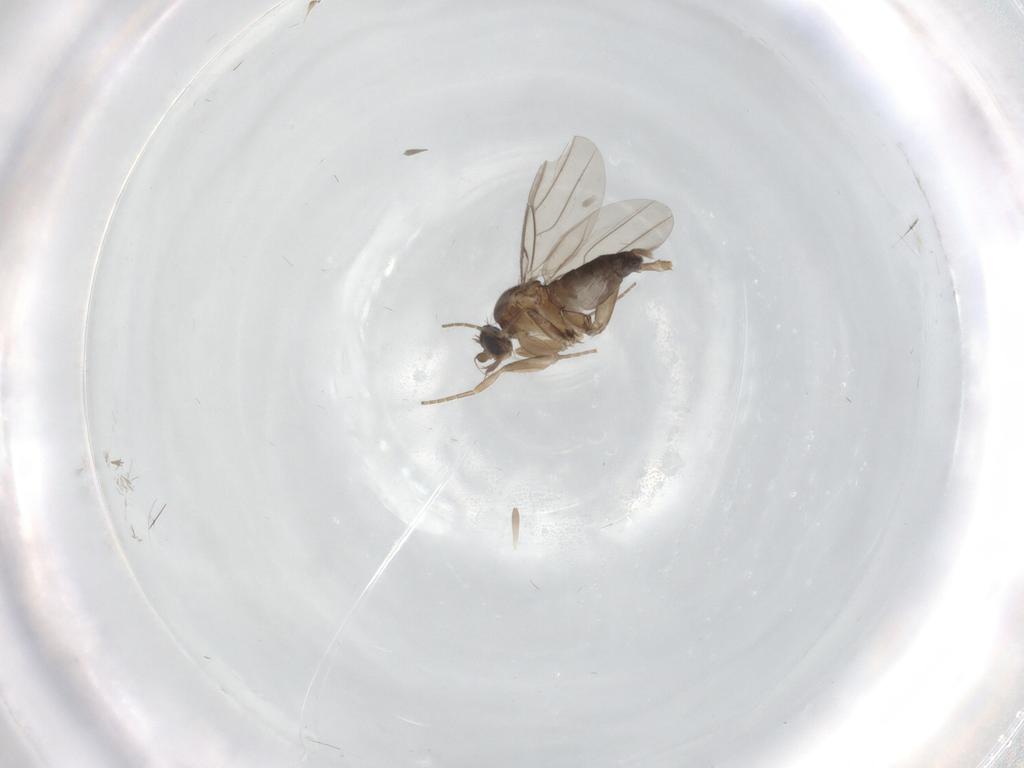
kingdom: Animalia
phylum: Arthropoda
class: Insecta
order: Diptera
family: Phoridae
